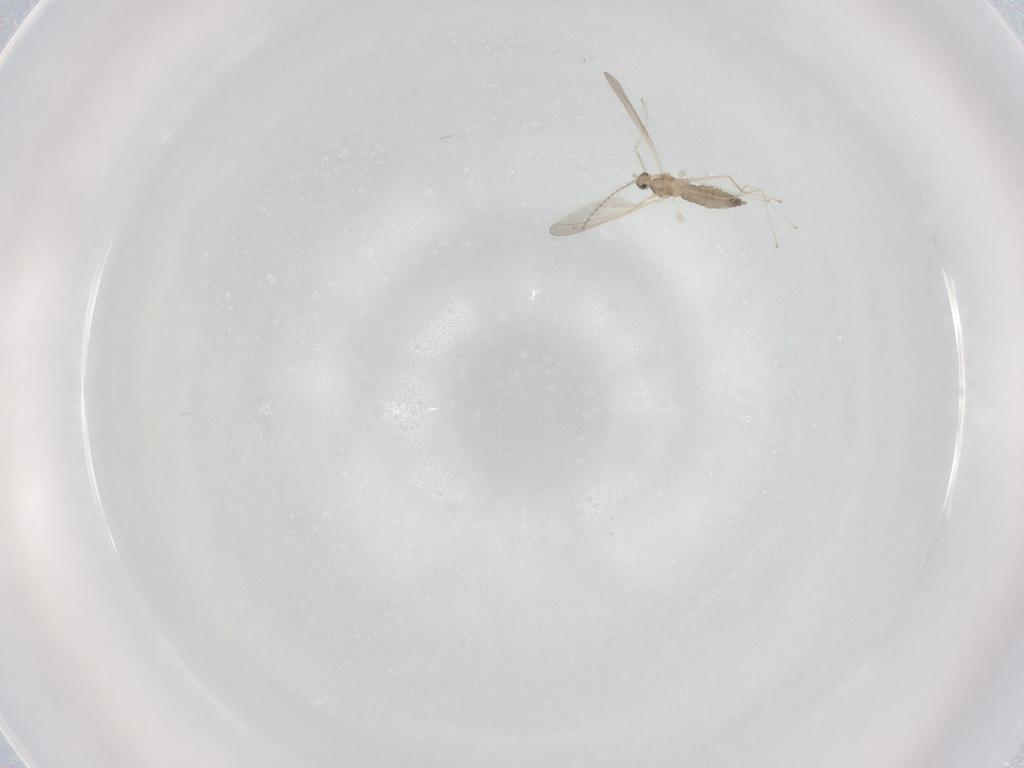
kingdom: Animalia
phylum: Arthropoda
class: Insecta
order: Diptera
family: Cecidomyiidae
